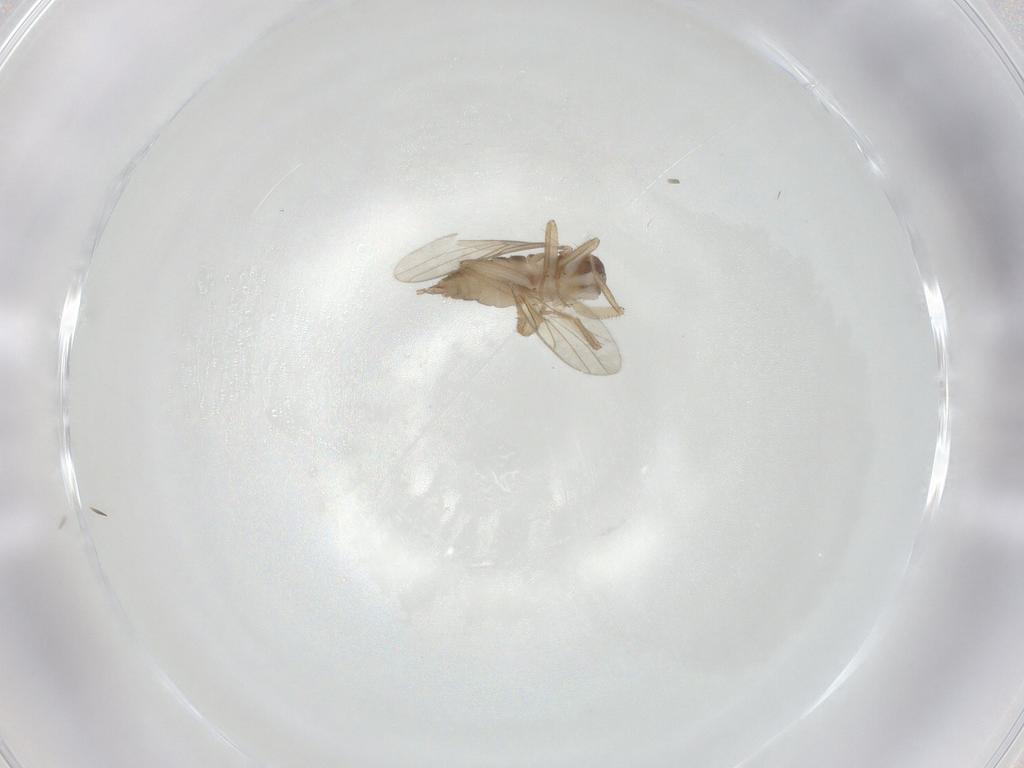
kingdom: Animalia
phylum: Arthropoda
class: Insecta
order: Diptera
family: Hybotidae
